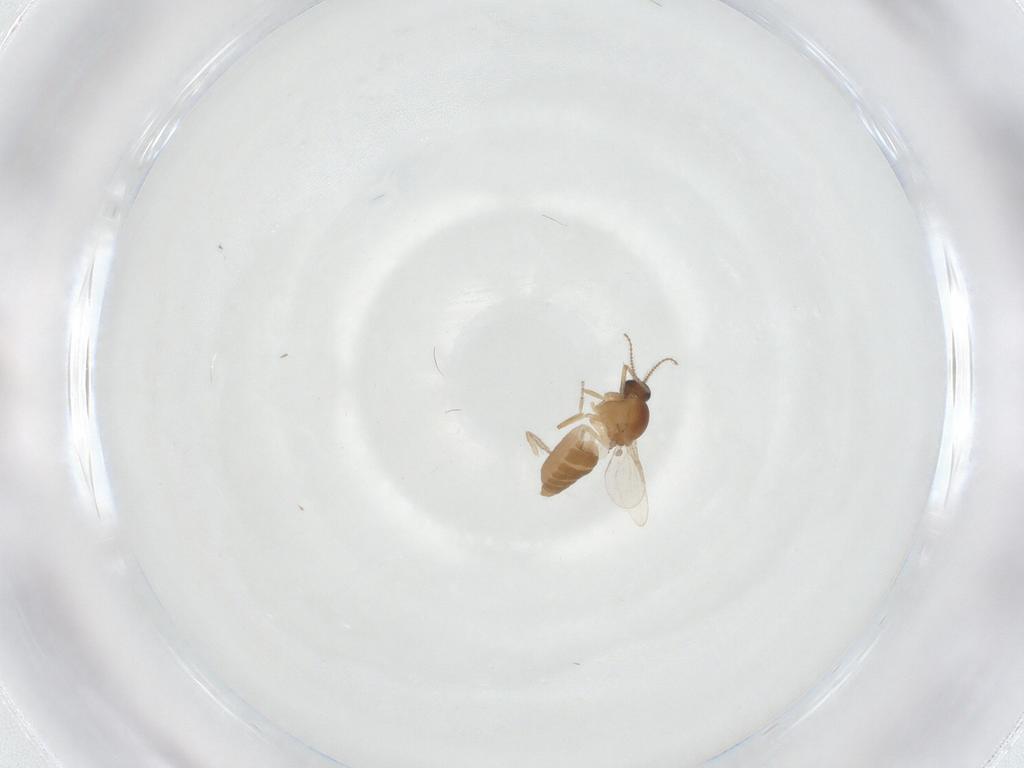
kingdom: Animalia
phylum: Arthropoda
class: Insecta
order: Diptera
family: Ceratopogonidae
